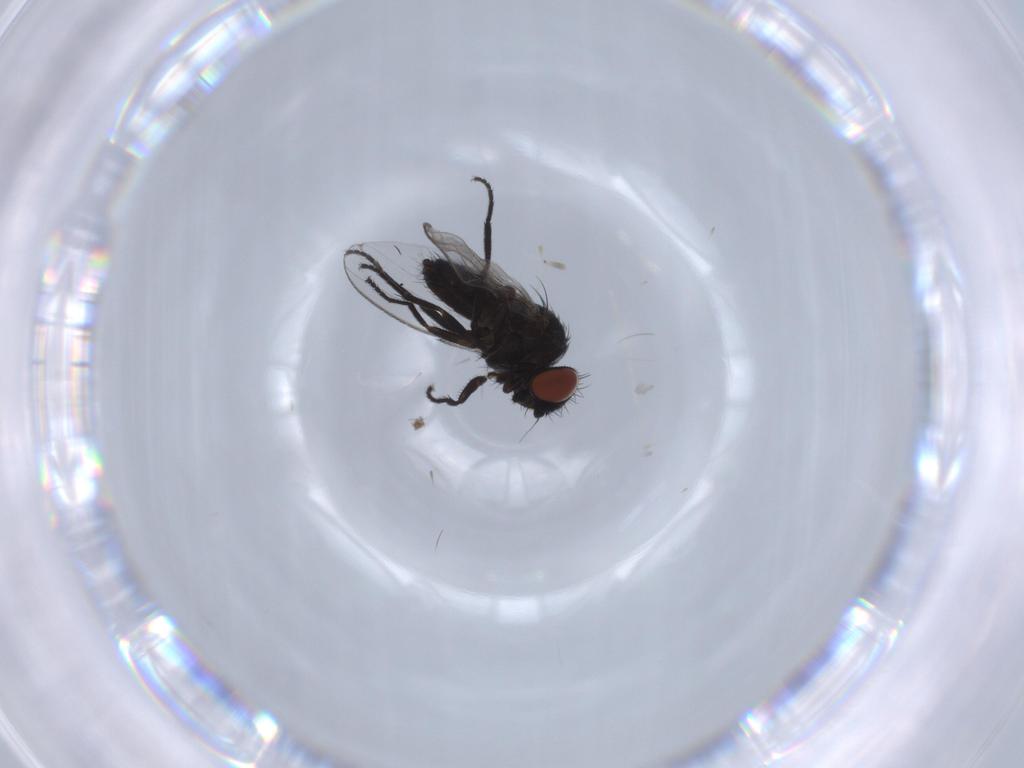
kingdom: Animalia
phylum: Arthropoda
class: Insecta
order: Diptera
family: Milichiidae
